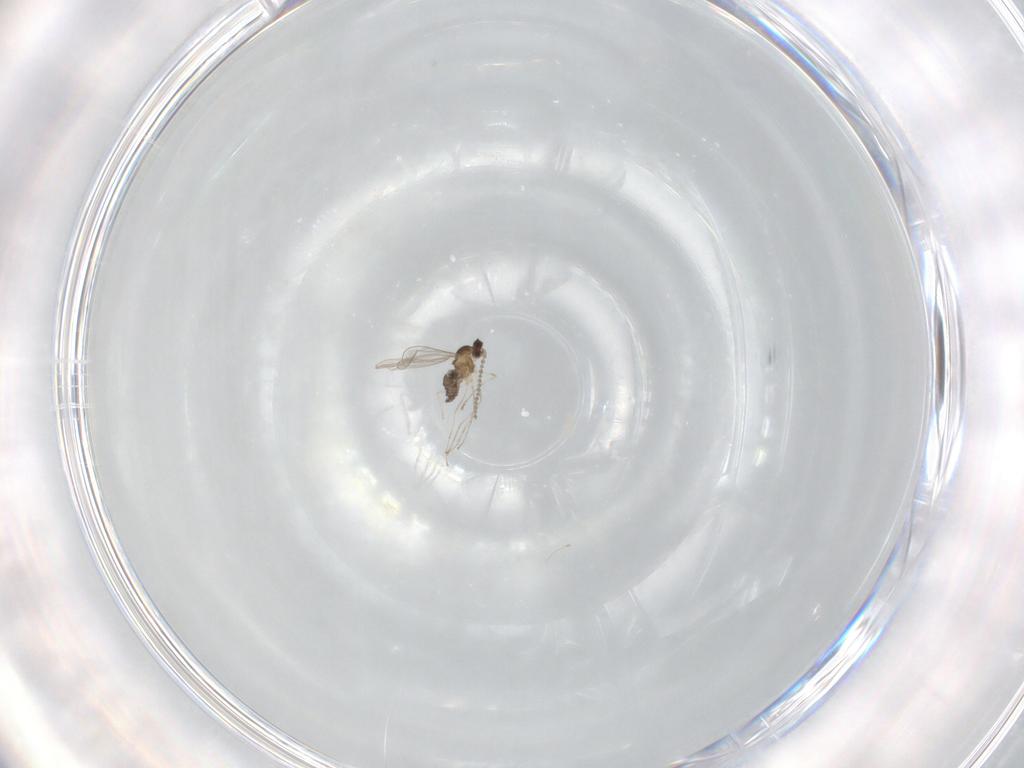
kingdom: Animalia
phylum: Arthropoda
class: Insecta
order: Diptera
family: Cecidomyiidae
